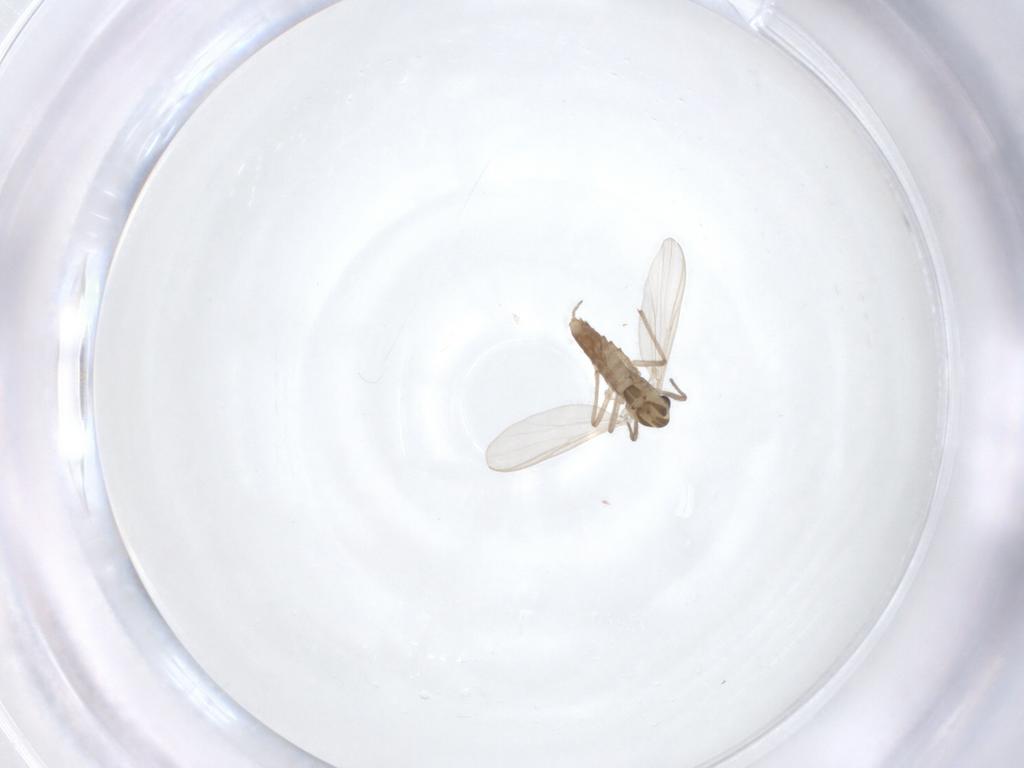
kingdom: Animalia
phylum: Arthropoda
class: Insecta
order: Diptera
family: Chironomidae
